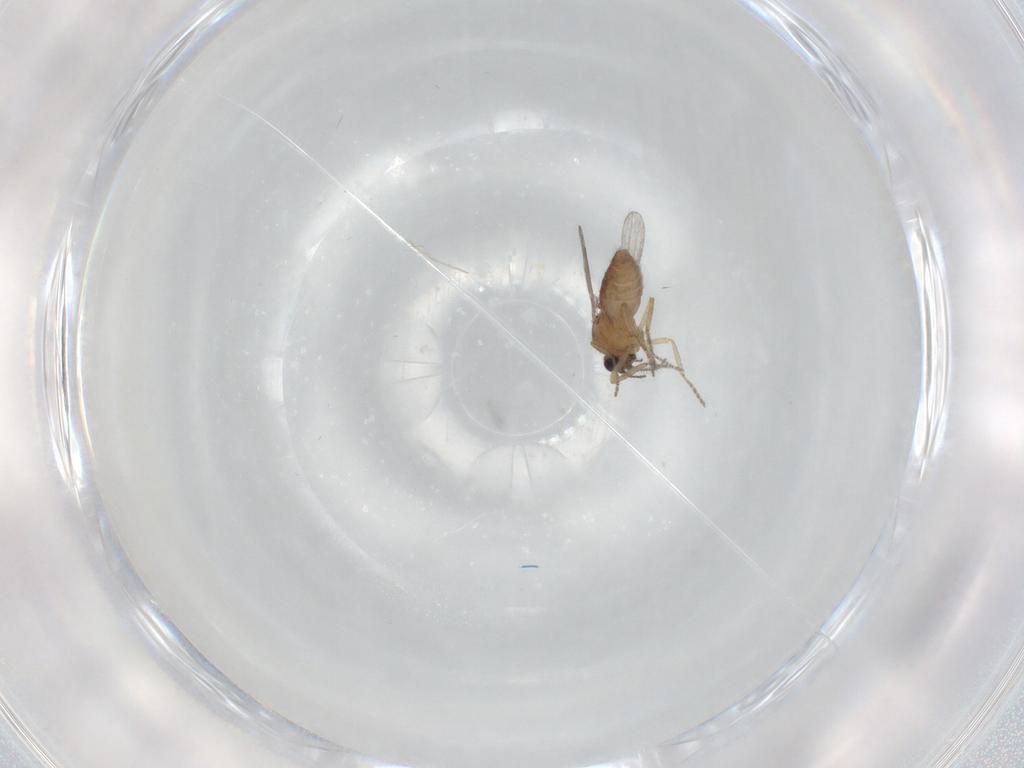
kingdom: Animalia
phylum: Arthropoda
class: Insecta
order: Diptera
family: Ceratopogonidae
